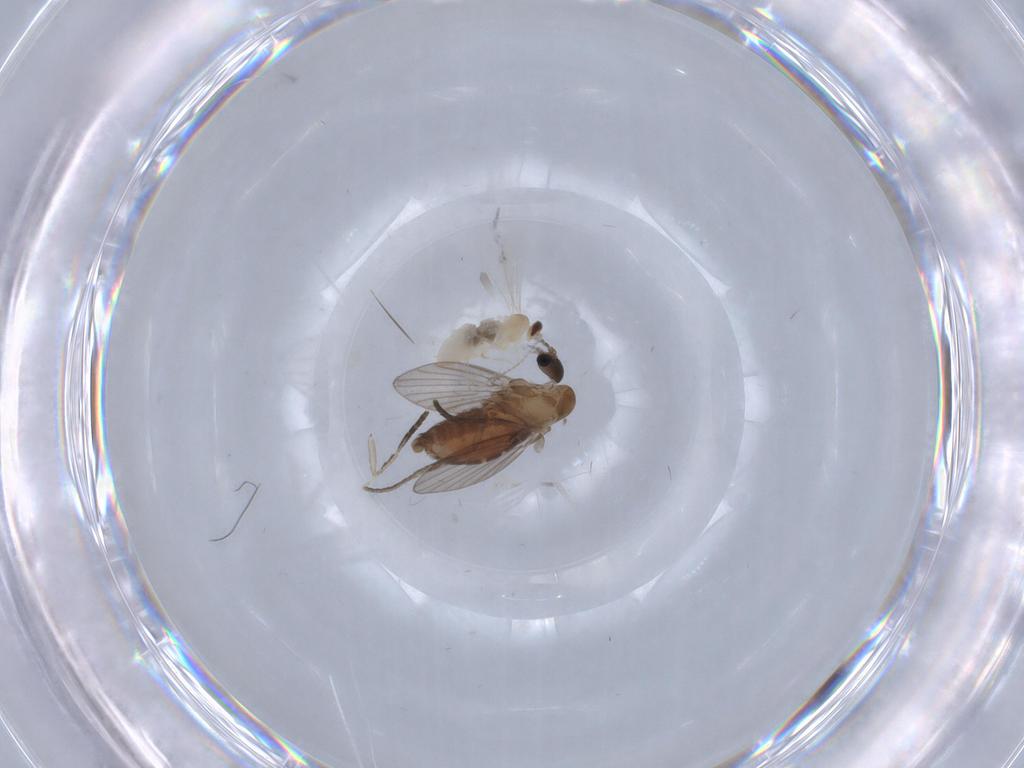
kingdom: Animalia
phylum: Arthropoda
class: Insecta
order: Diptera
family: Cecidomyiidae
